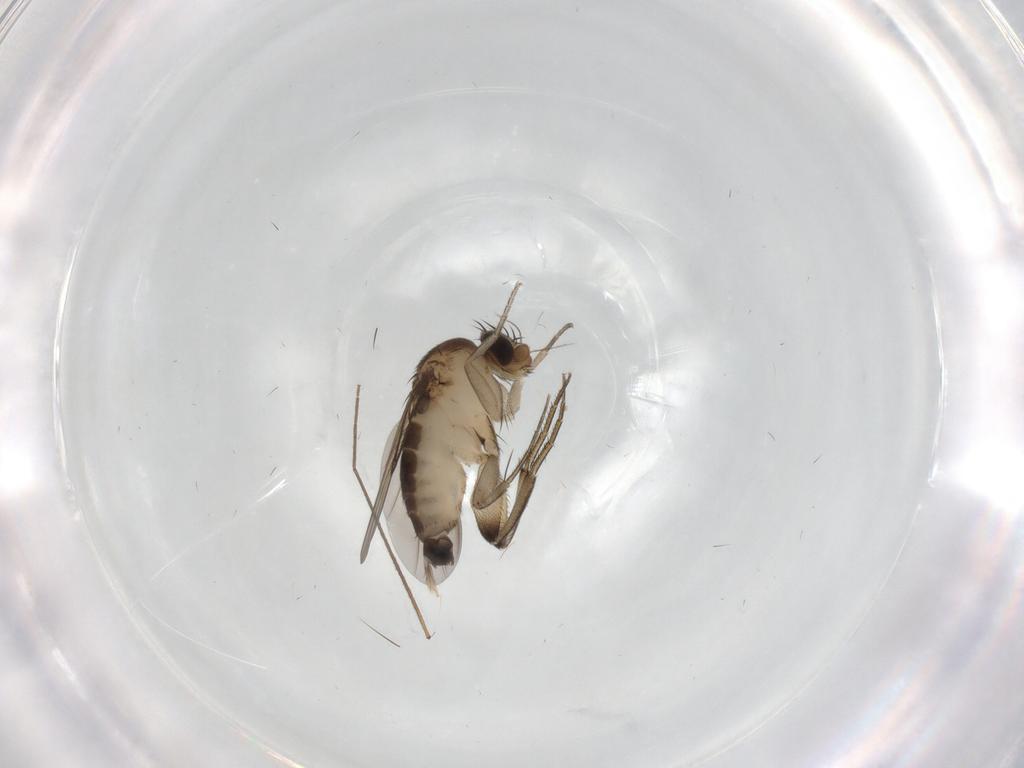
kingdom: Animalia
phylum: Arthropoda
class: Insecta
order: Diptera
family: Phoridae
